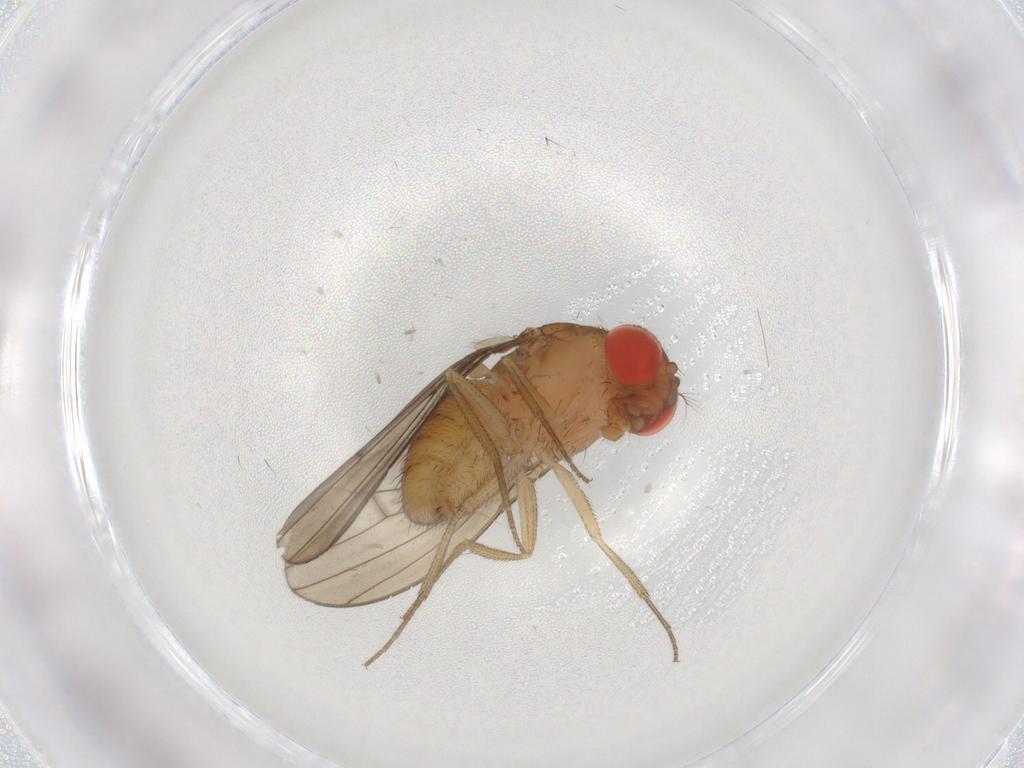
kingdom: Animalia
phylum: Arthropoda
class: Insecta
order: Diptera
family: Drosophilidae
